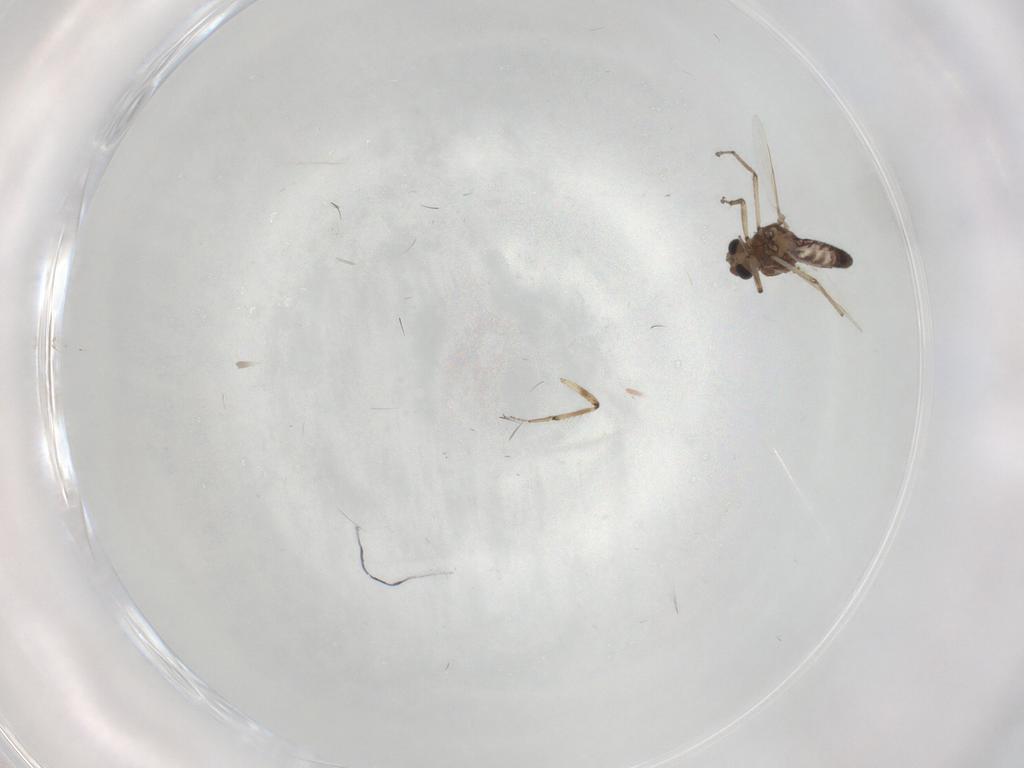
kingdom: Animalia
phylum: Arthropoda
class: Insecta
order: Diptera
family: Ceratopogonidae
